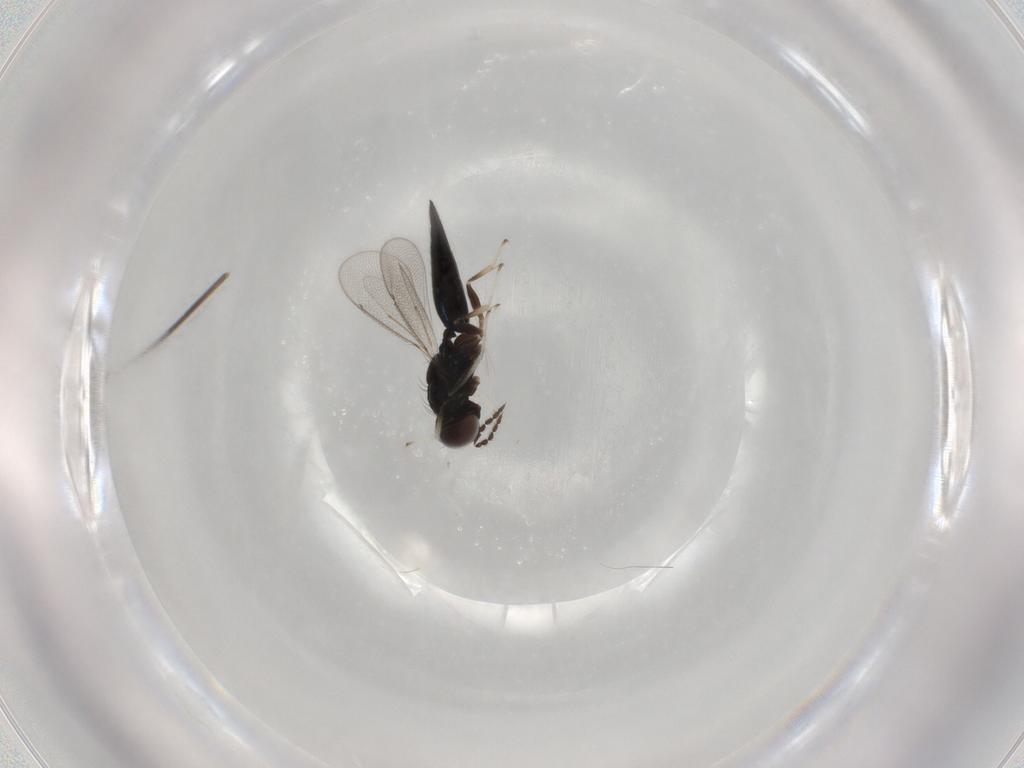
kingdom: Animalia
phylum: Arthropoda
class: Insecta
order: Hymenoptera
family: Eulophidae
